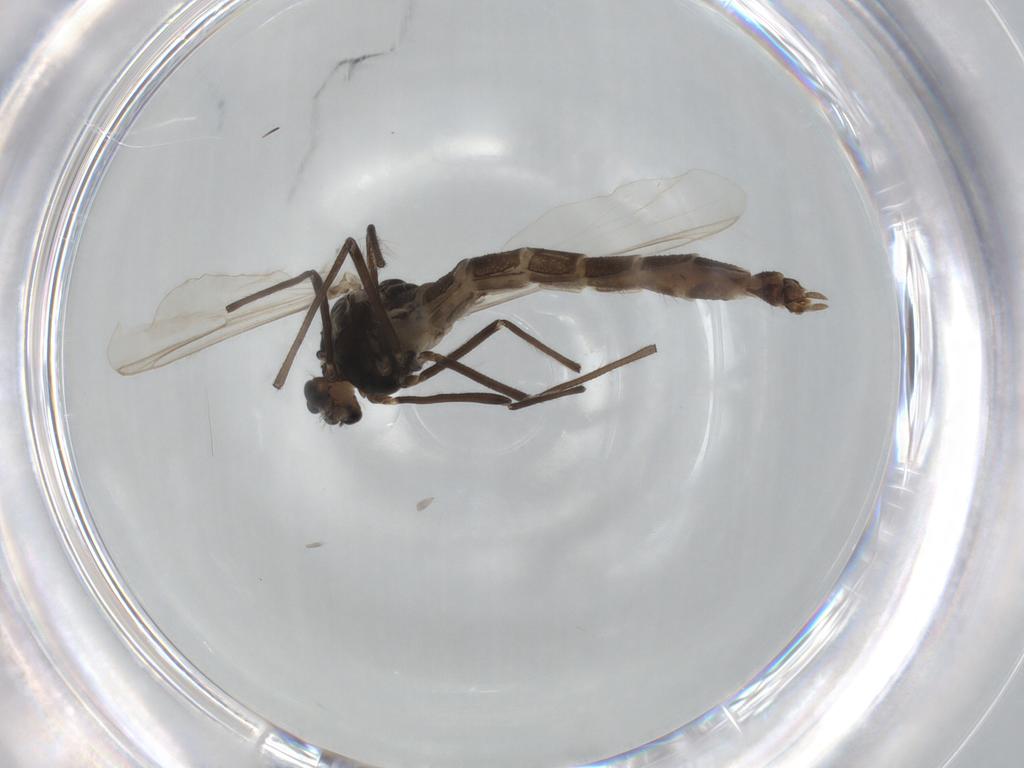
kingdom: Animalia
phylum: Arthropoda
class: Insecta
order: Diptera
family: Chironomidae
